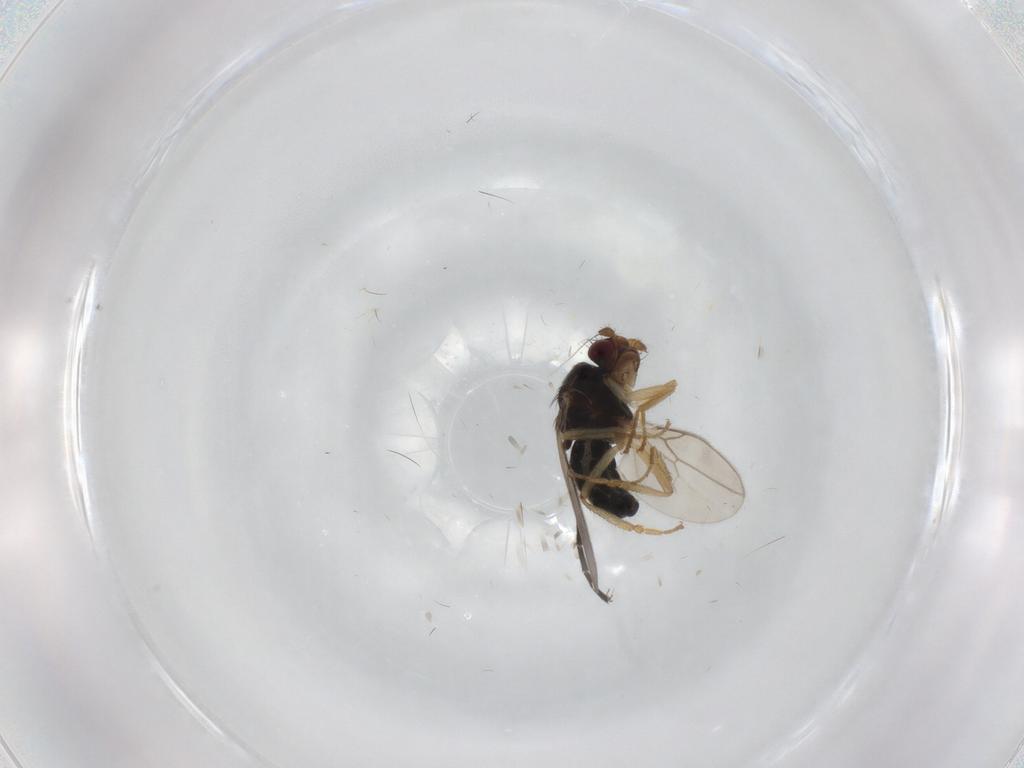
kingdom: Animalia
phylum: Arthropoda
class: Insecta
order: Diptera
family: Sphaeroceridae
